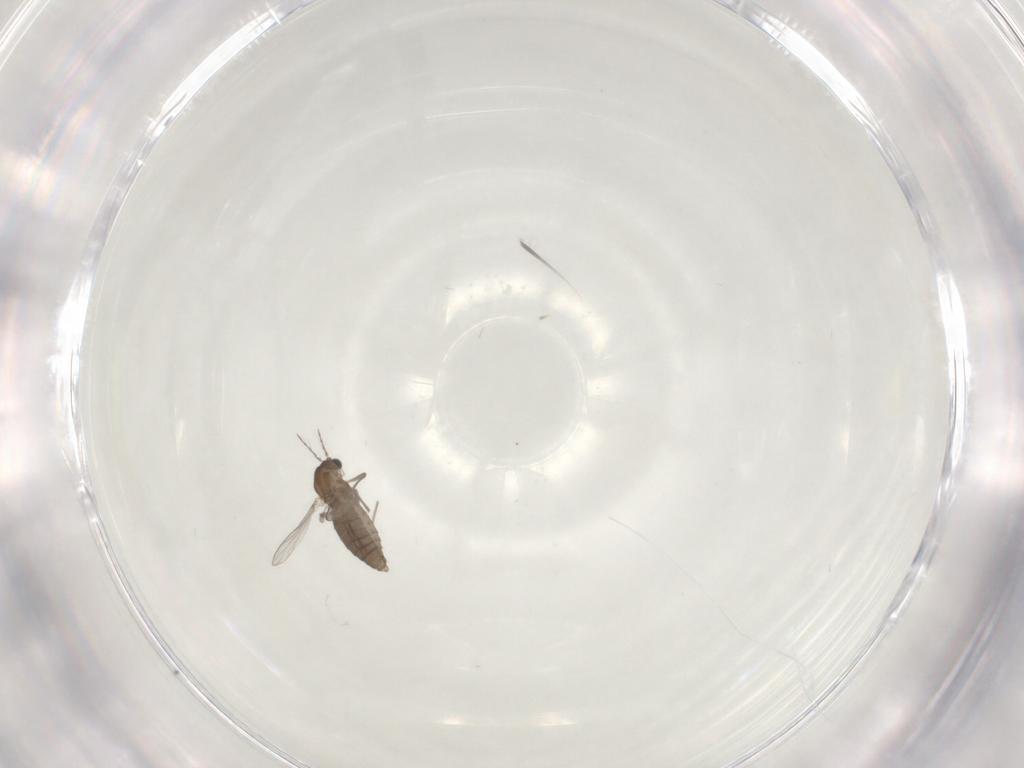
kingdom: Animalia
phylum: Arthropoda
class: Insecta
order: Diptera
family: Chironomidae
